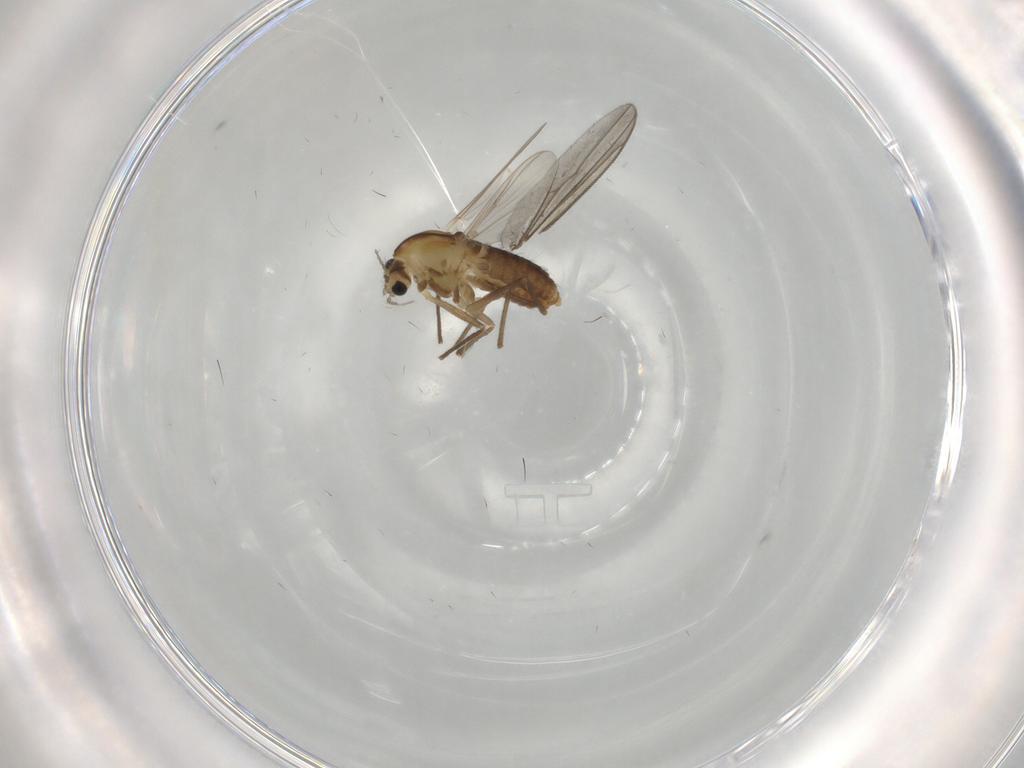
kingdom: Animalia
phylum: Arthropoda
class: Insecta
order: Diptera
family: Chironomidae
